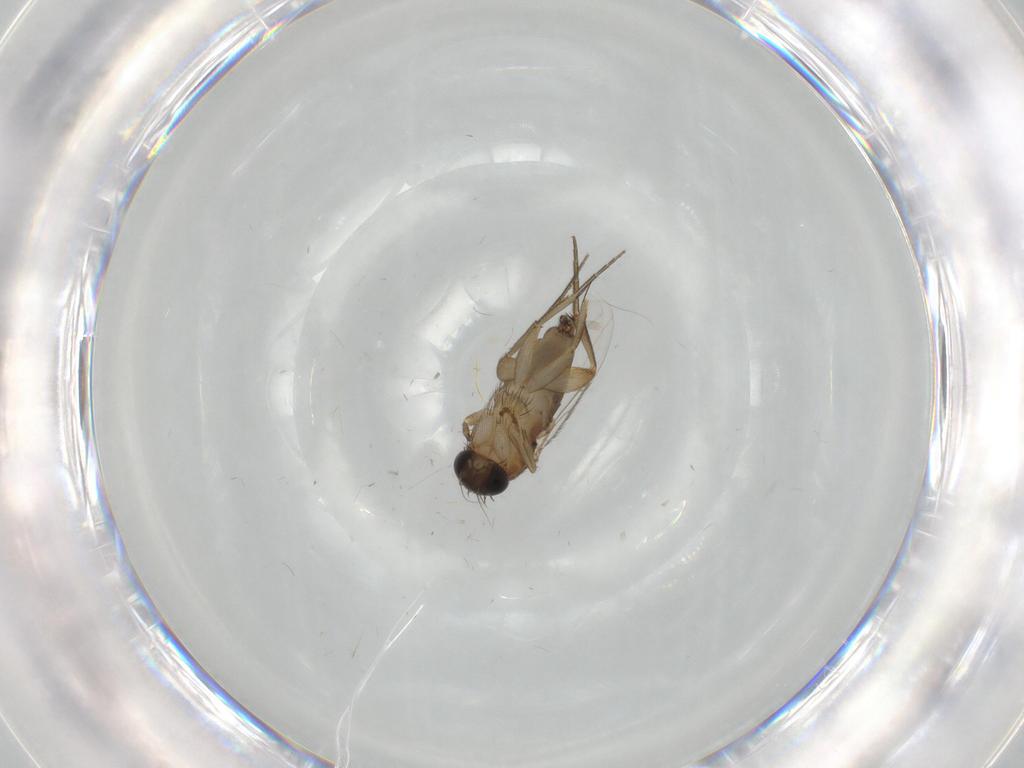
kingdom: Animalia
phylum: Arthropoda
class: Insecta
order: Diptera
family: Phoridae
